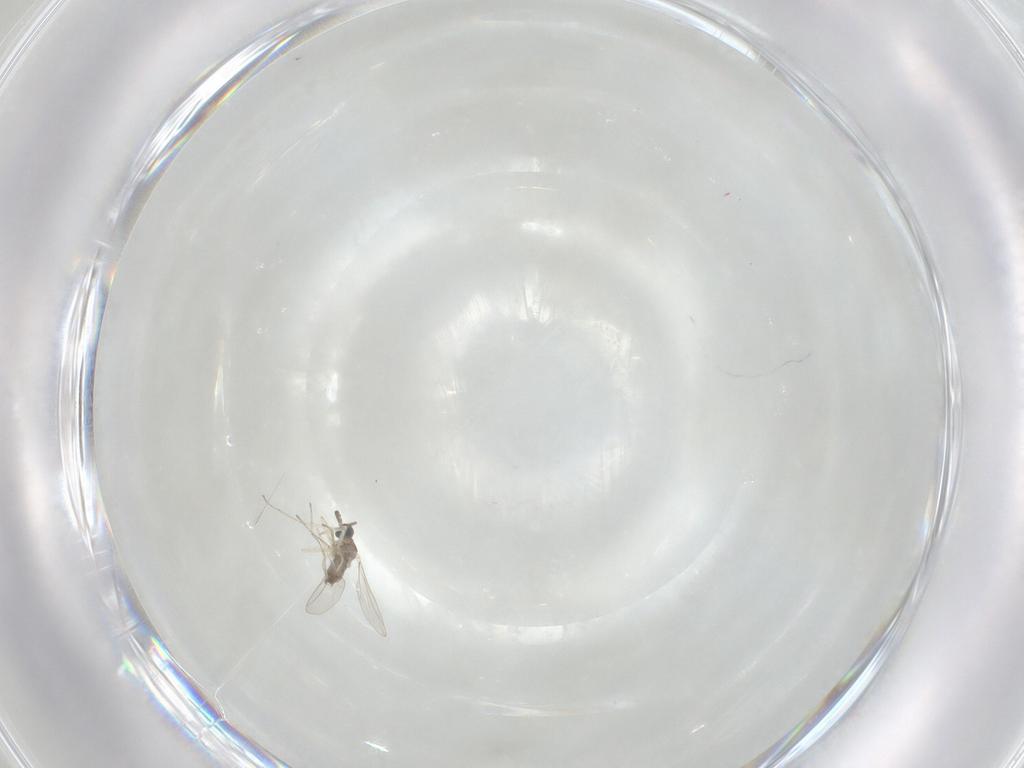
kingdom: Animalia
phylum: Arthropoda
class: Insecta
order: Diptera
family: Cecidomyiidae
